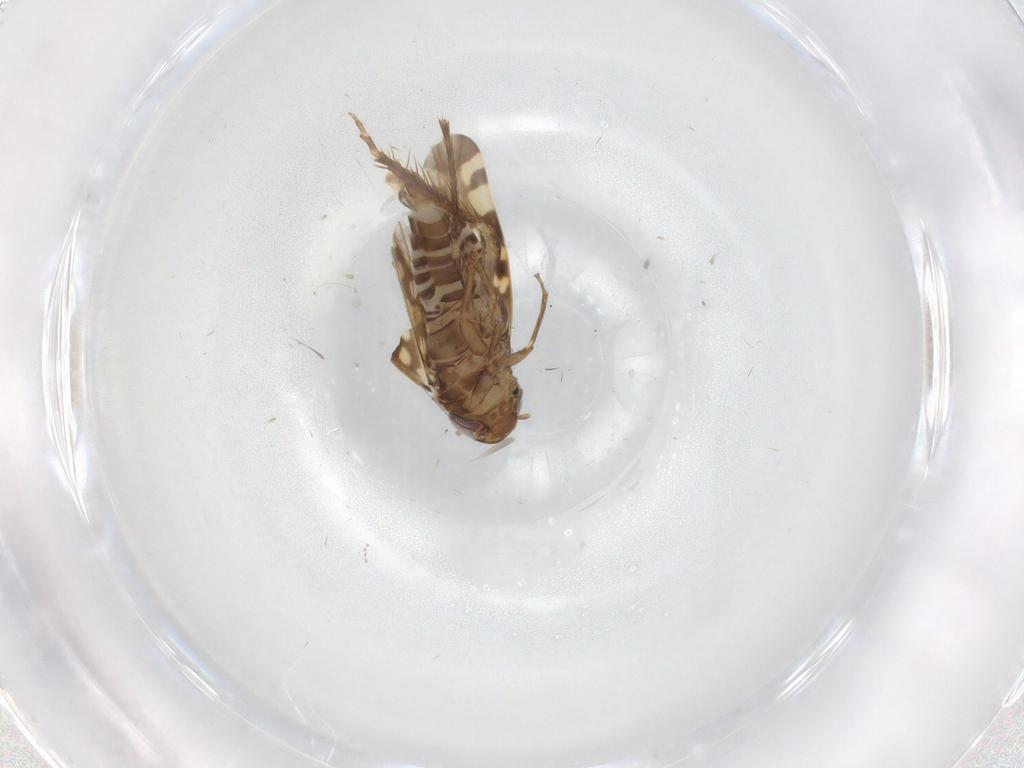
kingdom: Animalia
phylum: Arthropoda
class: Insecta
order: Hemiptera
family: Cicadellidae
